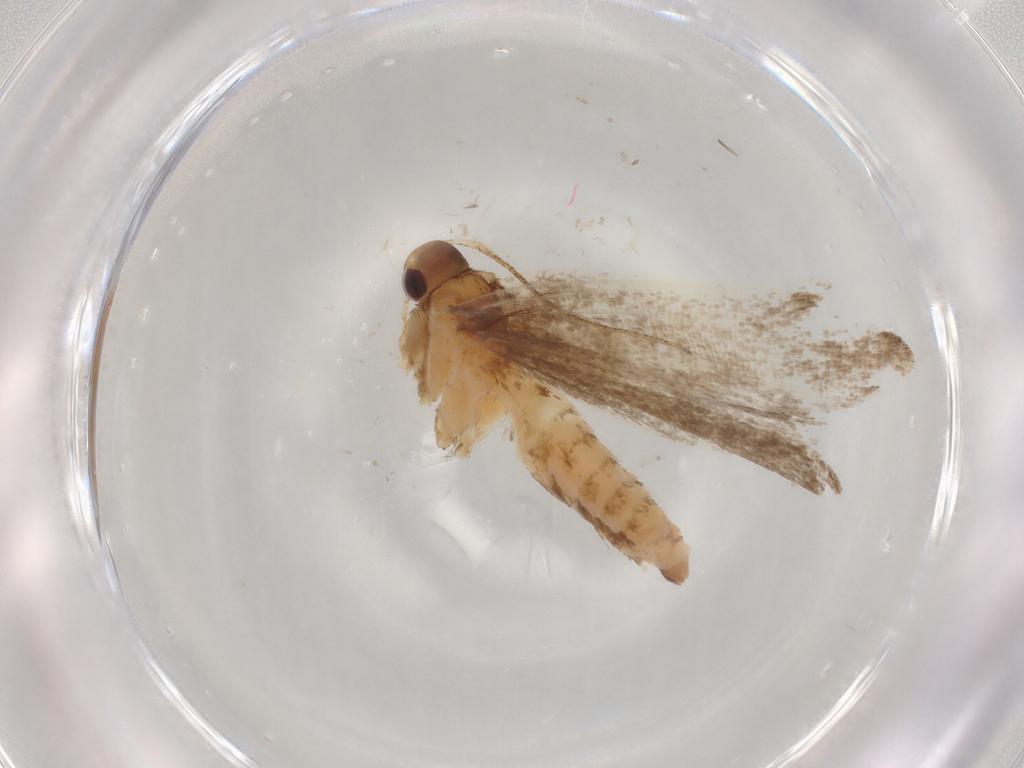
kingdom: Animalia
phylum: Arthropoda
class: Insecta
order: Lepidoptera
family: Gelechiidae
